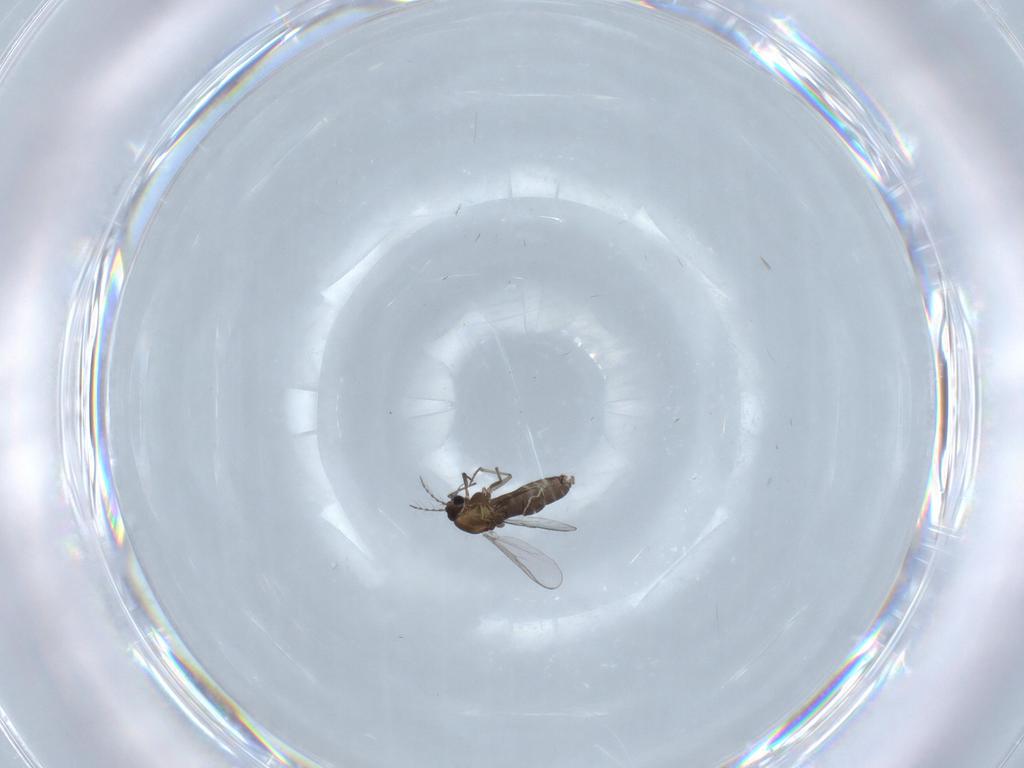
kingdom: Animalia
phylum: Arthropoda
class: Insecta
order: Diptera
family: Chironomidae
